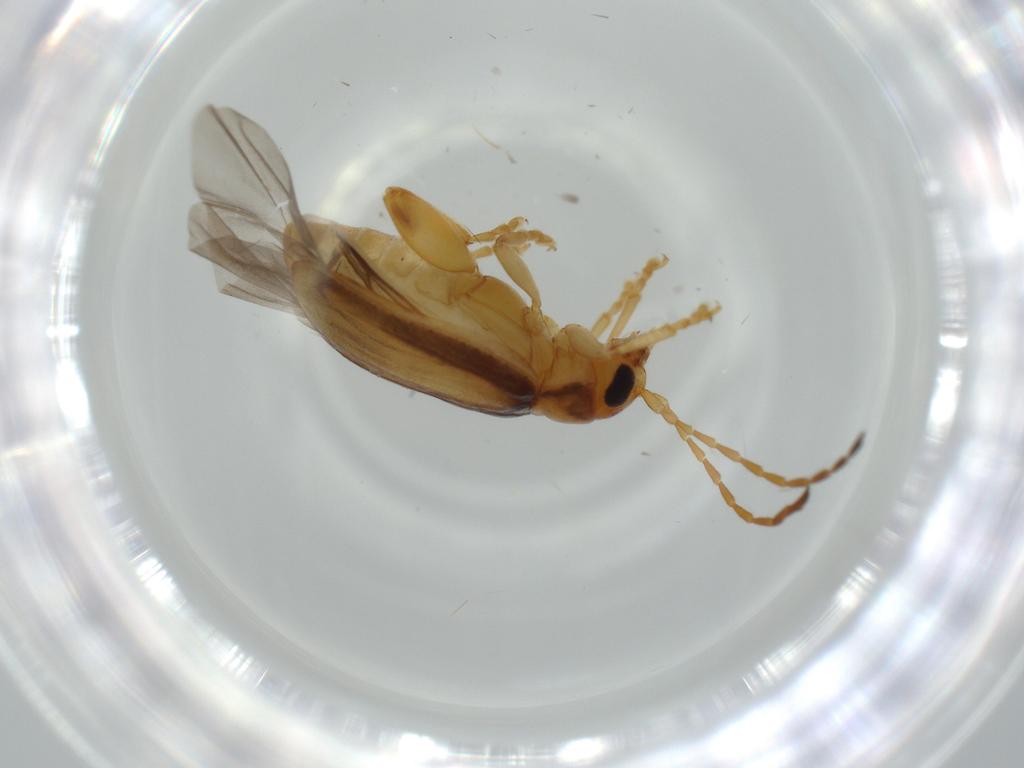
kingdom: Animalia
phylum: Arthropoda
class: Insecta
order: Coleoptera
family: Chrysomelidae
